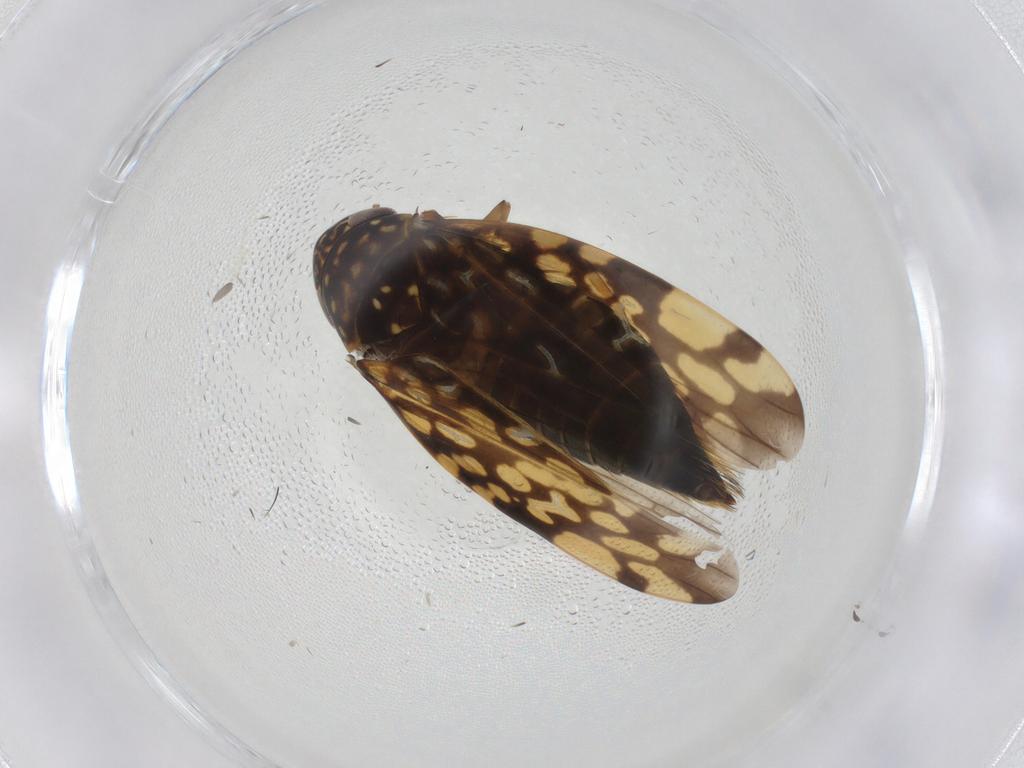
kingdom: Animalia
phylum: Arthropoda
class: Insecta
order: Hemiptera
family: Cicadellidae
